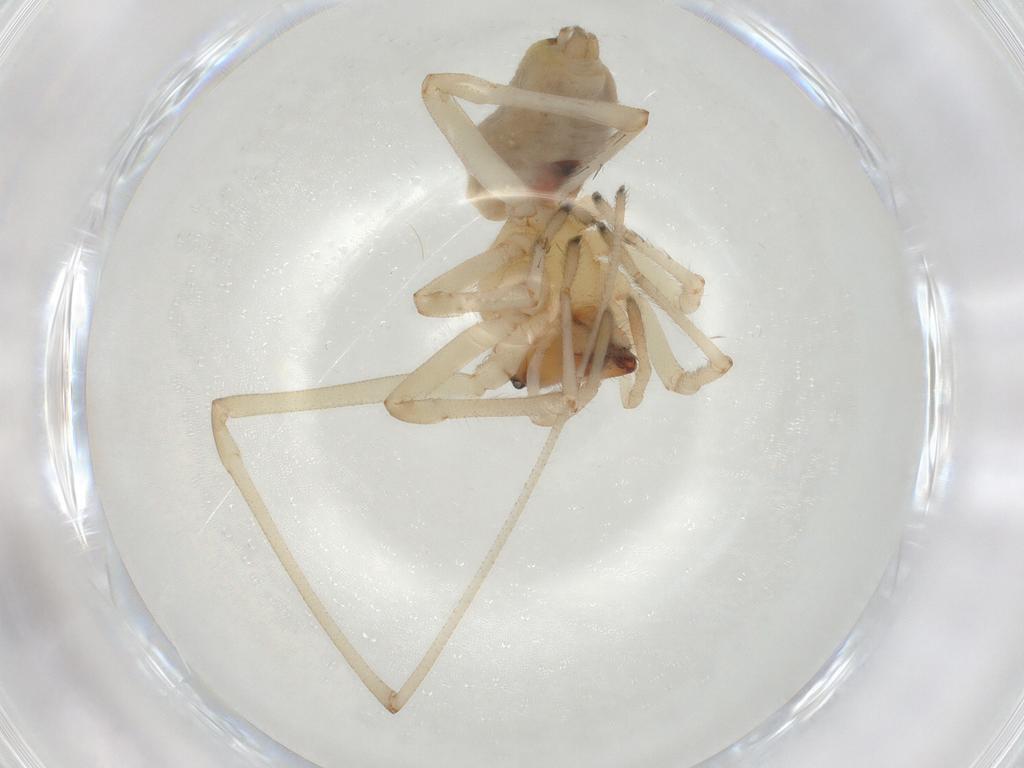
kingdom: Animalia
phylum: Arthropoda
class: Arachnida
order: Araneae
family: Cheiracanthiidae
